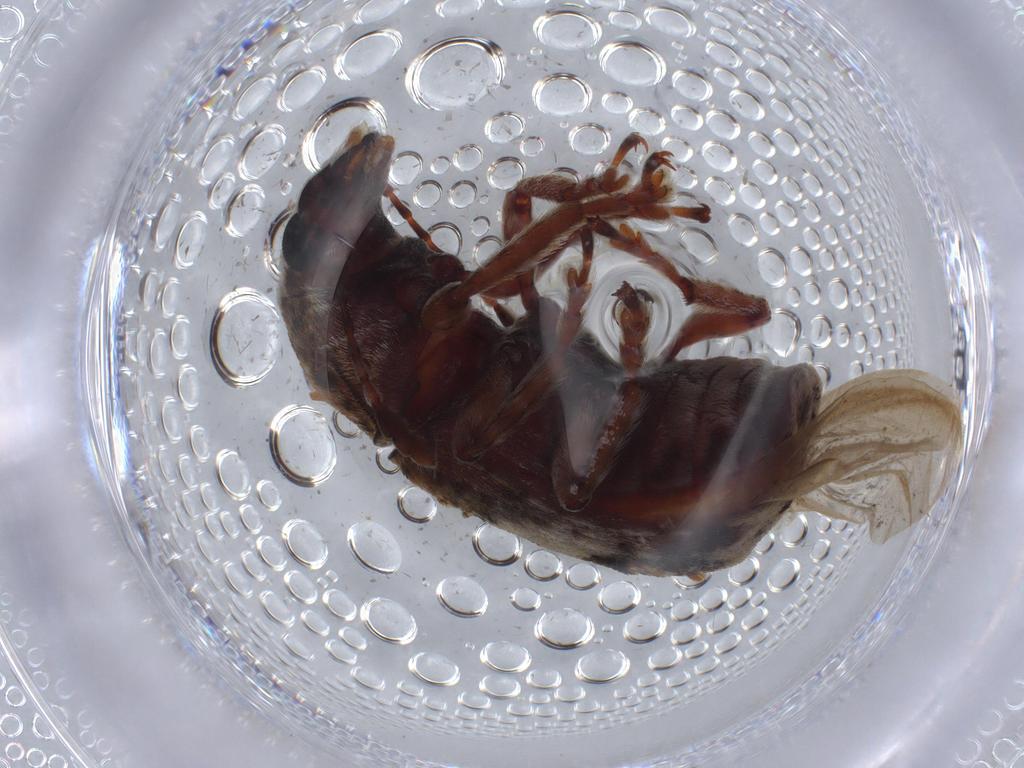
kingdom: Animalia
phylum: Arthropoda
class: Insecta
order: Coleoptera
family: Anthribidae
